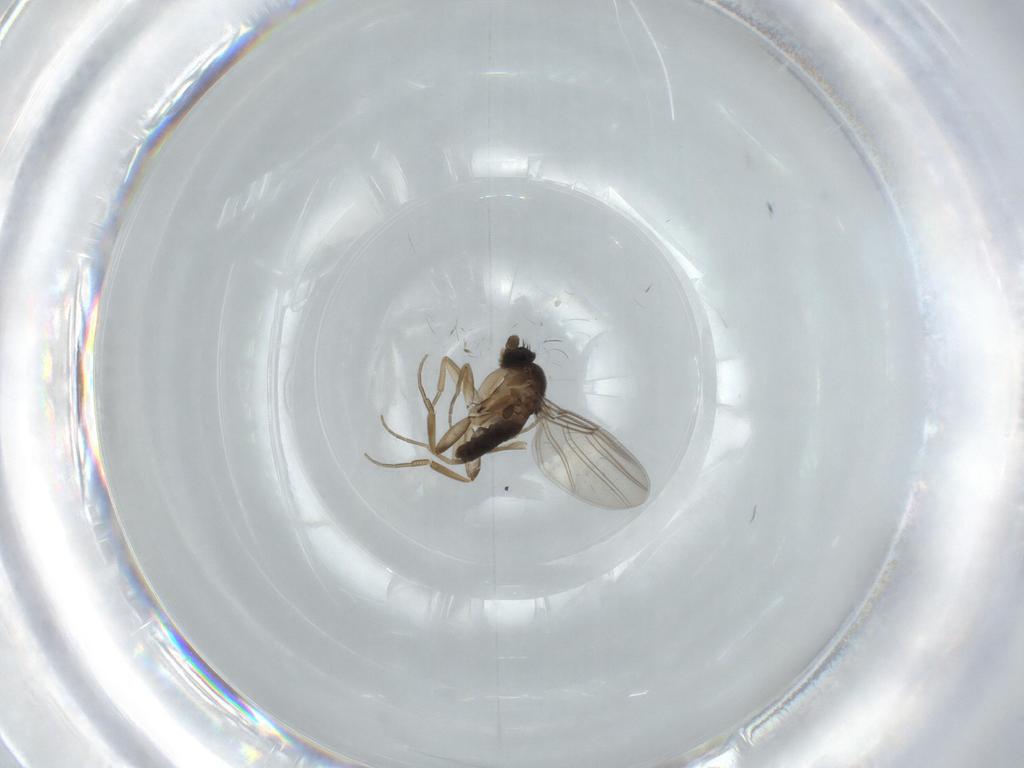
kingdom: Animalia
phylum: Arthropoda
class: Insecta
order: Diptera
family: Phoridae
